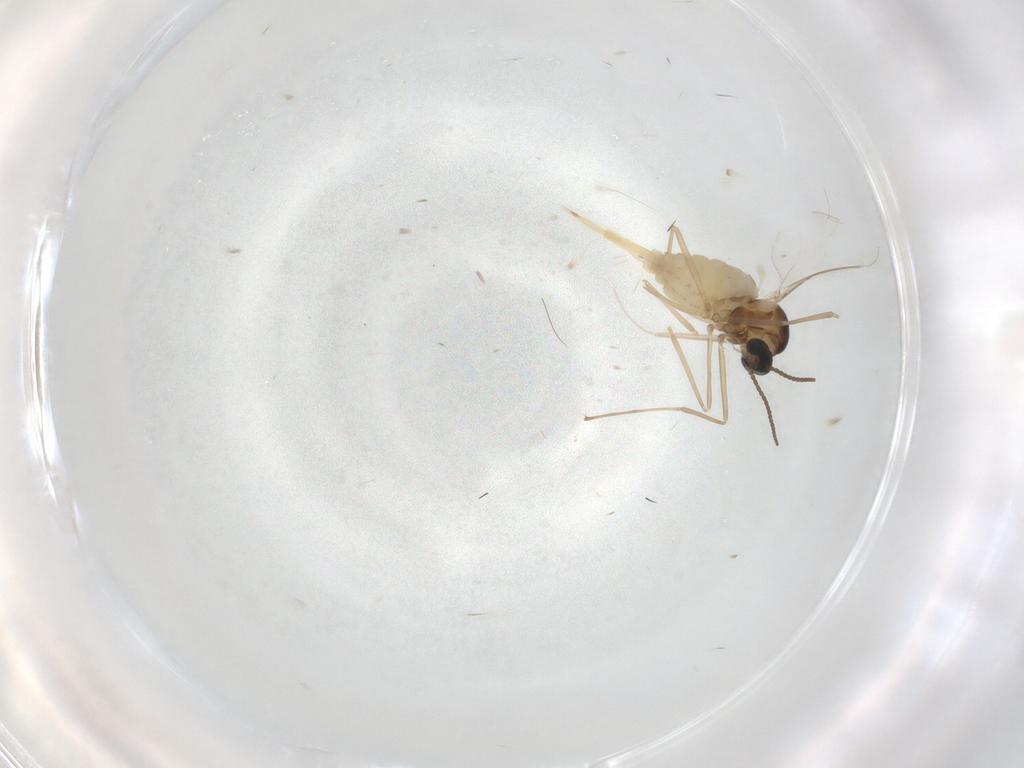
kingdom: Animalia
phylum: Arthropoda
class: Insecta
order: Diptera
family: Cecidomyiidae
